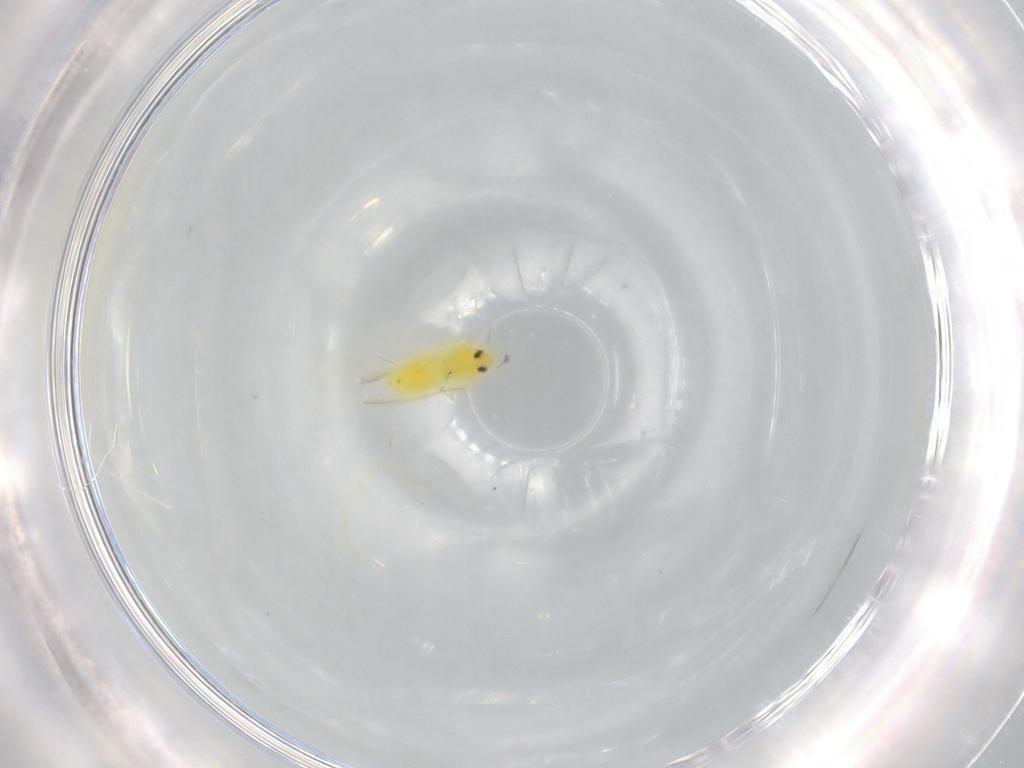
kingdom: Animalia
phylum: Arthropoda
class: Insecta
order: Hemiptera
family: Aleyrodidae
